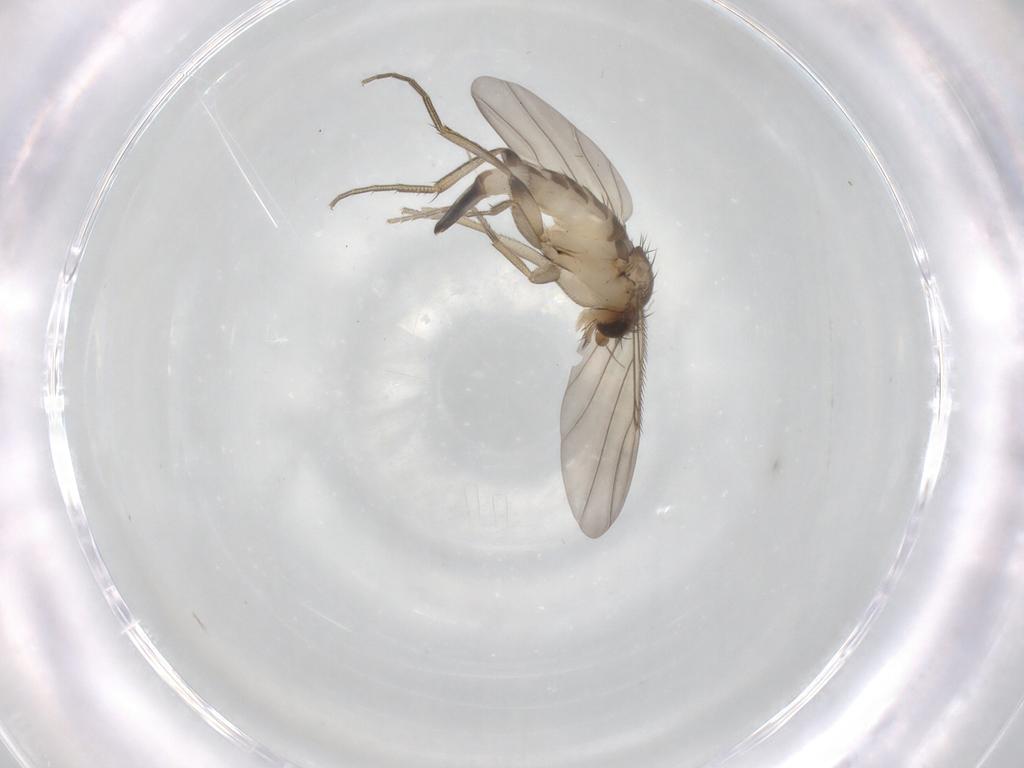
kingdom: Animalia
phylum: Arthropoda
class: Insecta
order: Diptera
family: Phoridae
